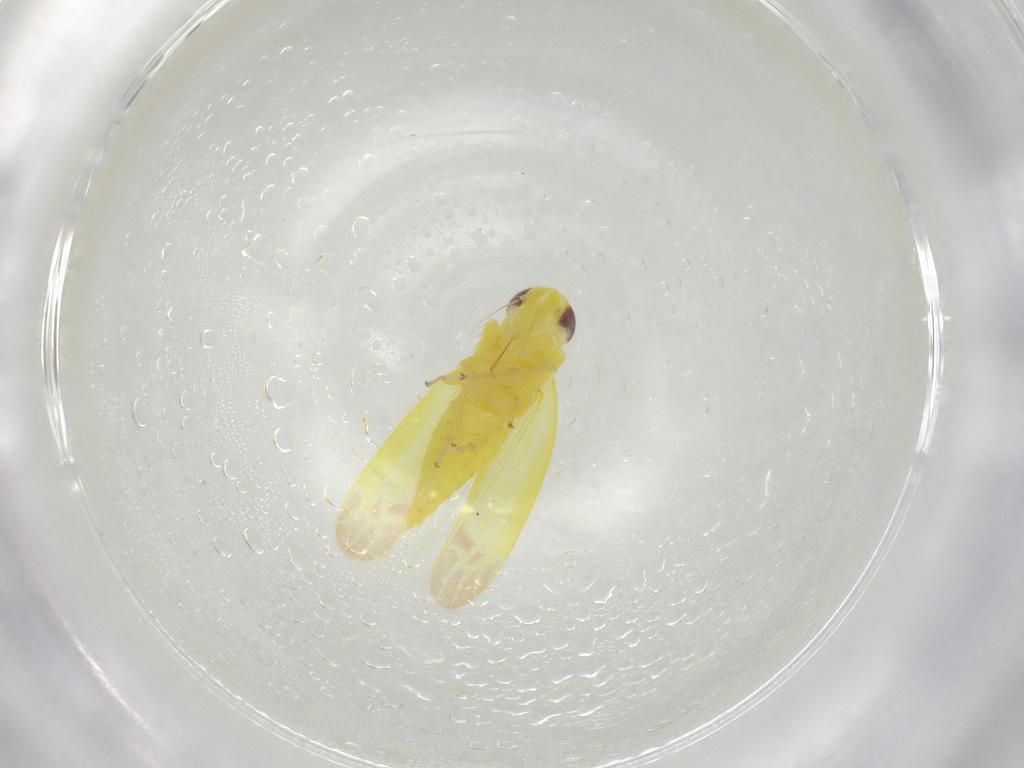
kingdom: Animalia
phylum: Arthropoda
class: Insecta
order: Hemiptera
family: Cicadellidae
